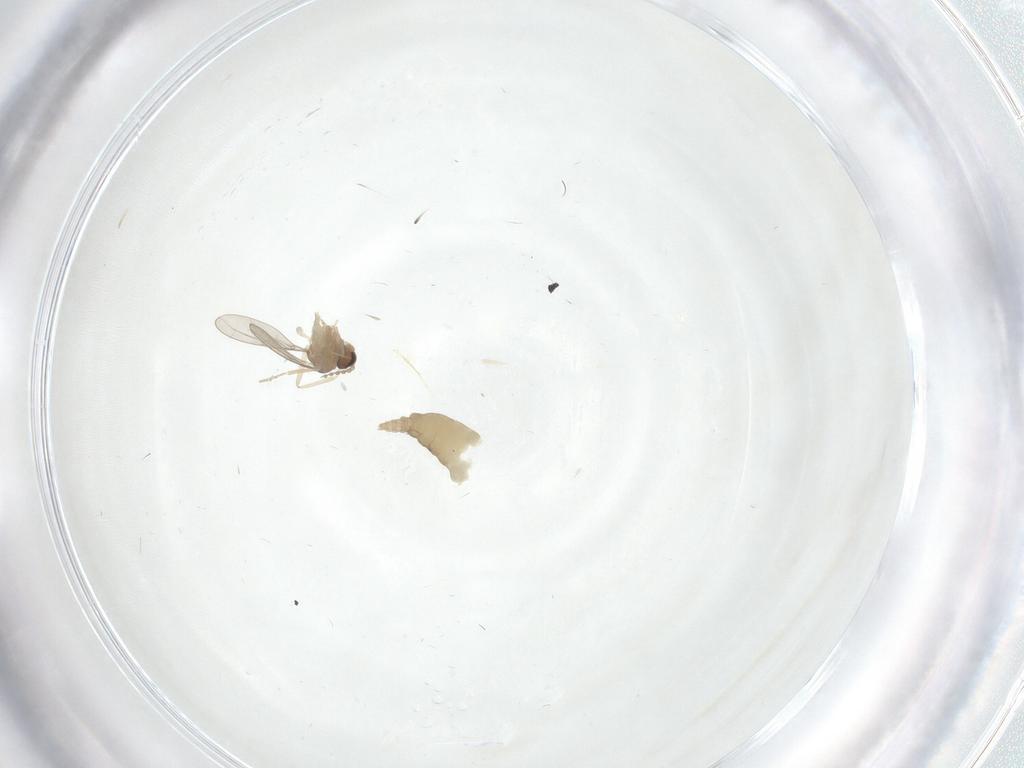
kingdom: Animalia
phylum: Arthropoda
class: Insecta
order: Diptera
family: Cecidomyiidae
